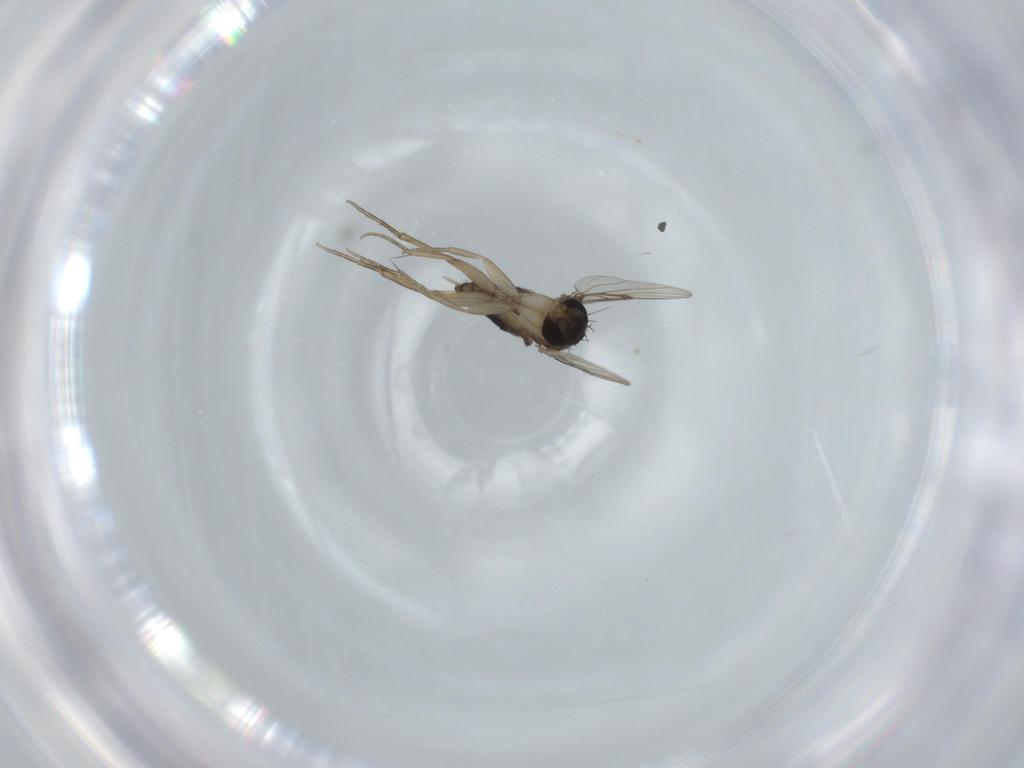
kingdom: Animalia
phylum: Arthropoda
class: Insecta
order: Diptera
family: Phoridae
